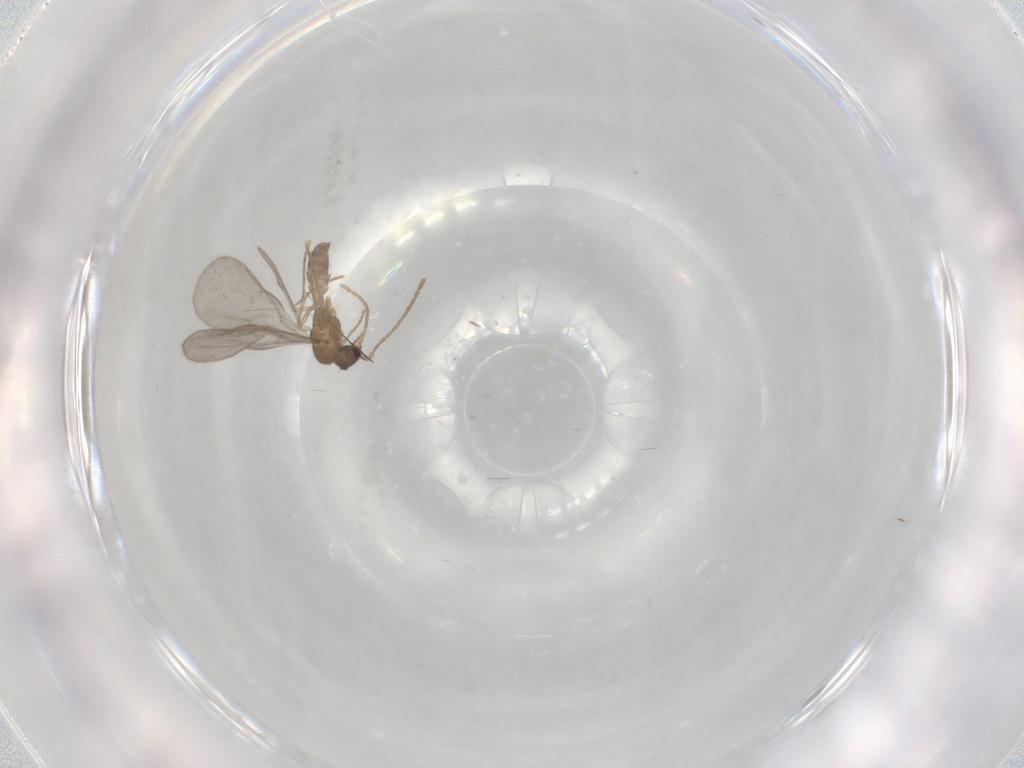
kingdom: Animalia
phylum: Arthropoda
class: Insecta
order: Hymenoptera
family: Formicidae
